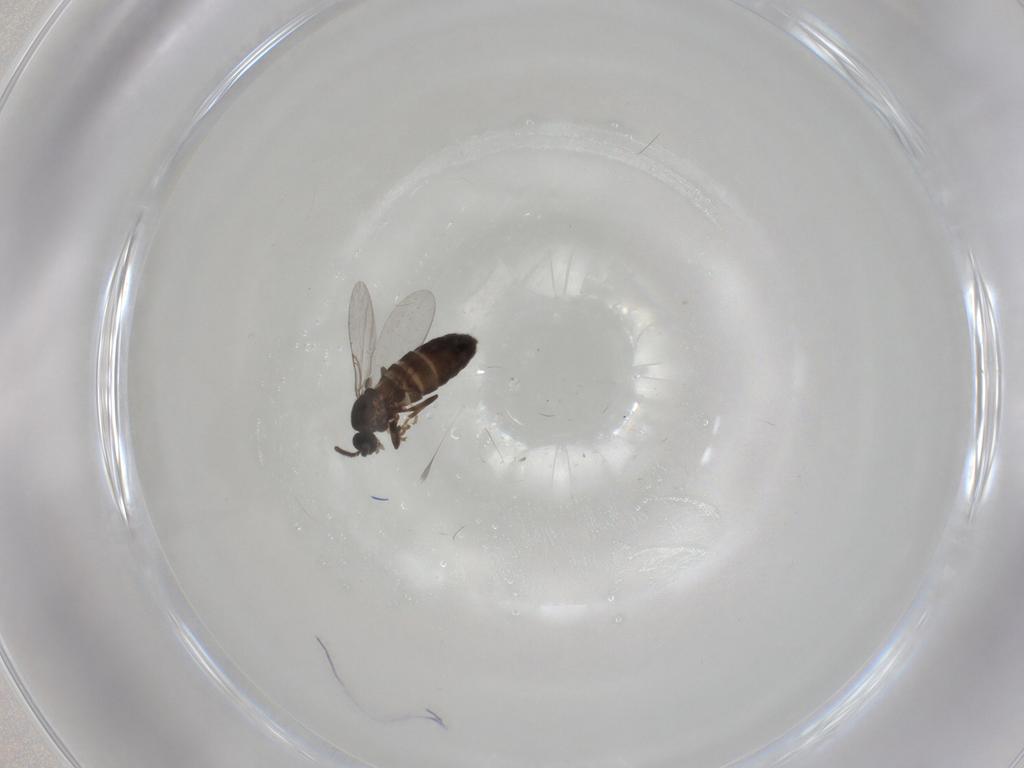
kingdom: Animalia
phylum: Arthropoda
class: Insecta
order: Diptera
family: Scatopsidae
